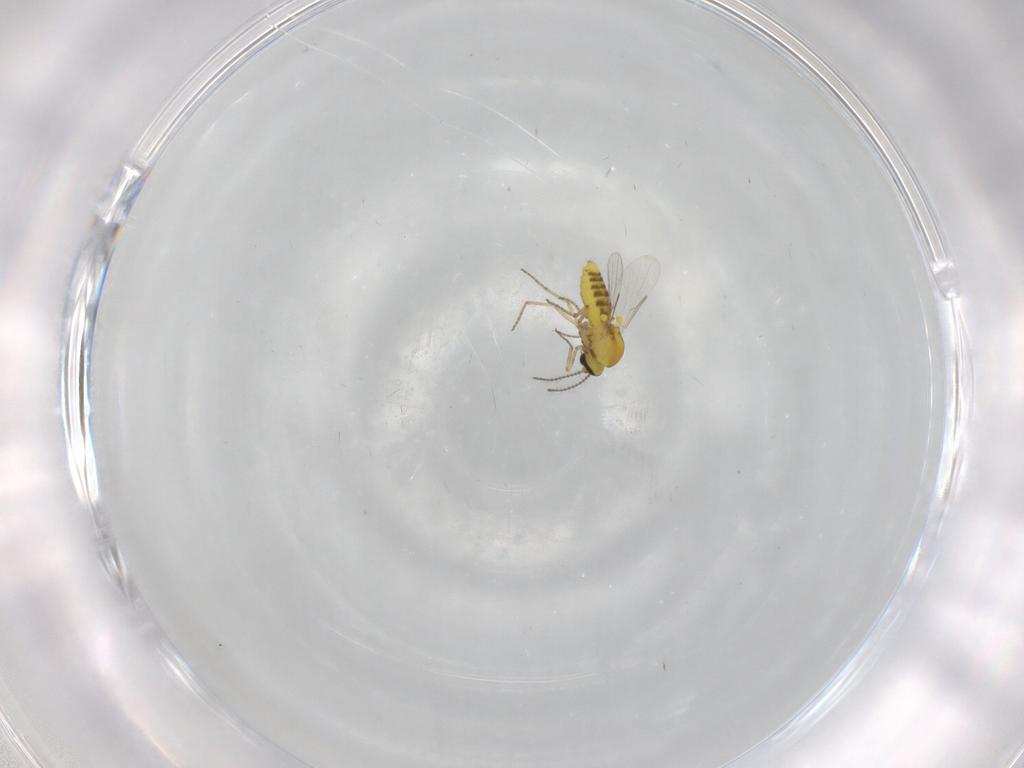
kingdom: Animalia
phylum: Arthropoda
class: Insecta
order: Diptera
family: Ceratopogonidae
